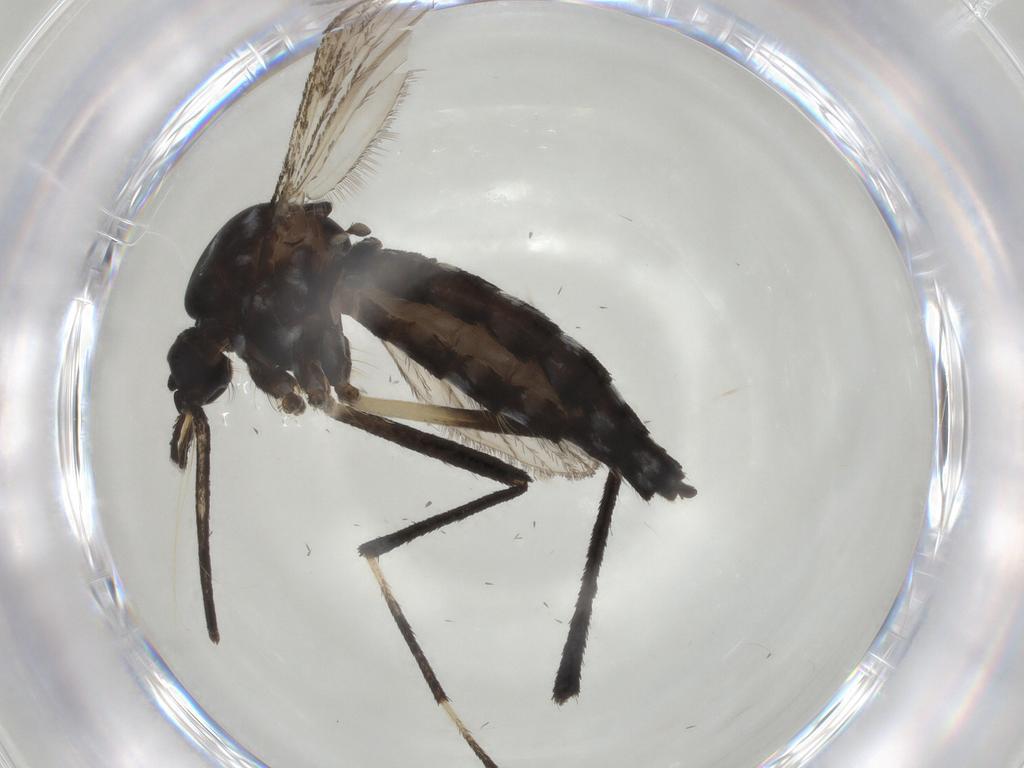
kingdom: Animalia
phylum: Arthropoda
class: Insecta
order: Diptera
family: Culicidae
